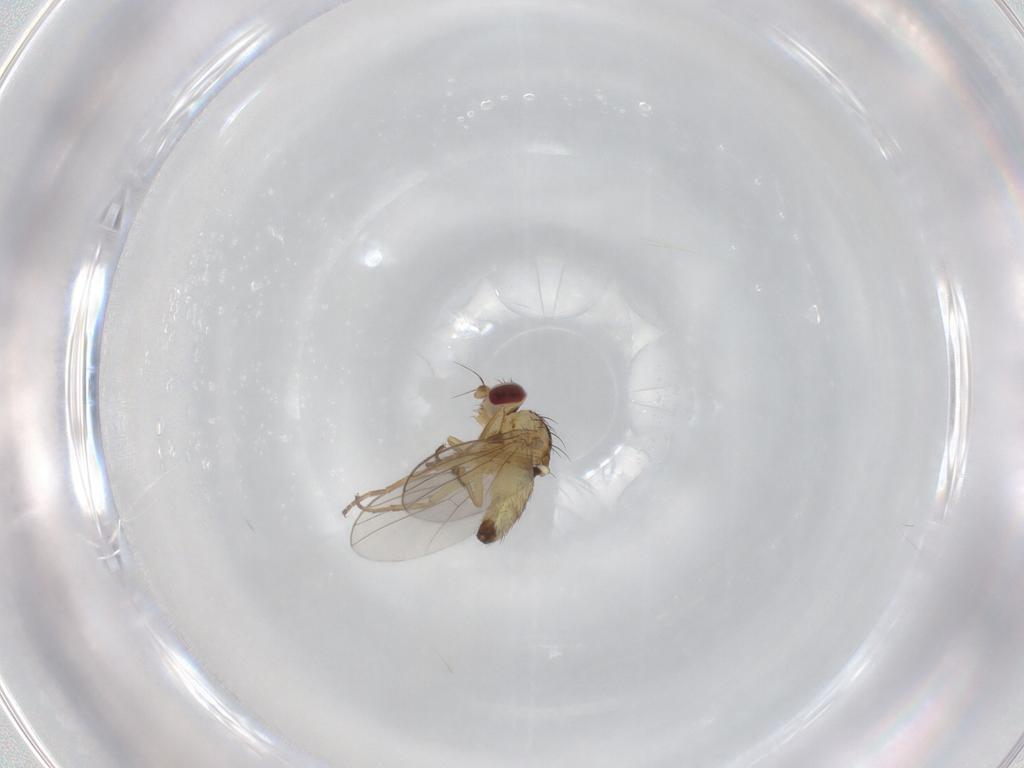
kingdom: Animalia
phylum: Arthropoda
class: Insecta
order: Diptera
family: Agromyzidae
